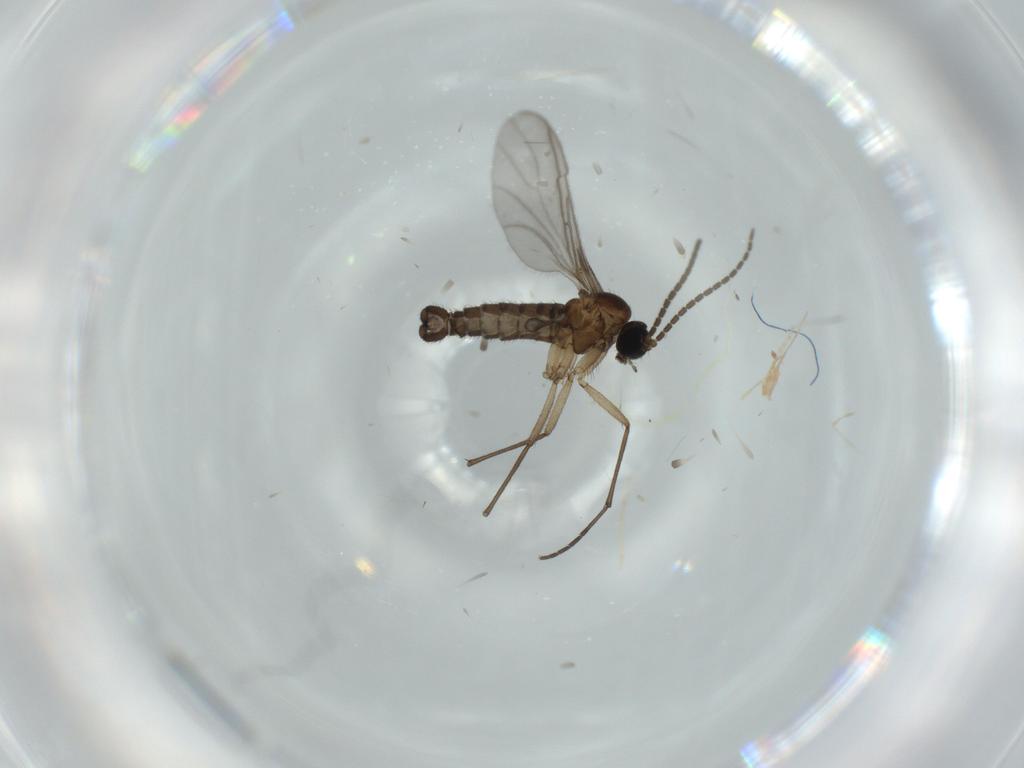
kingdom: Animalia
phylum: Arthropoda
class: Insecta
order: Diptera
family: Sciaridae
